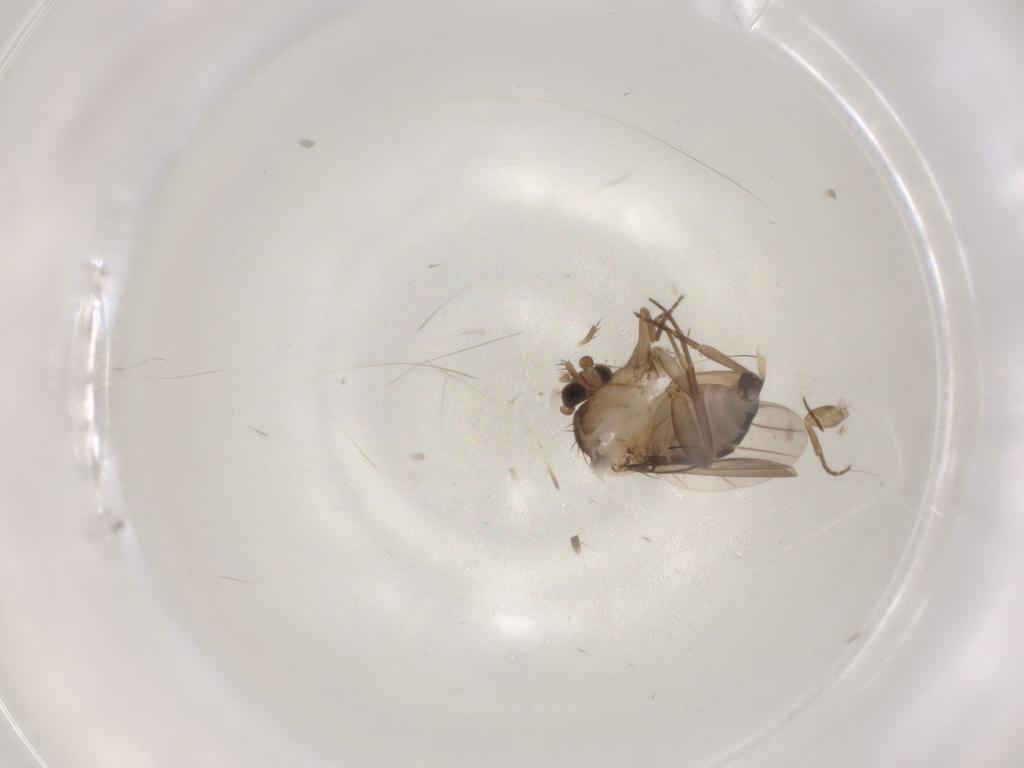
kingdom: Animalia
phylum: Arthropoda
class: Insecta
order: Diptera
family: Phoridae
